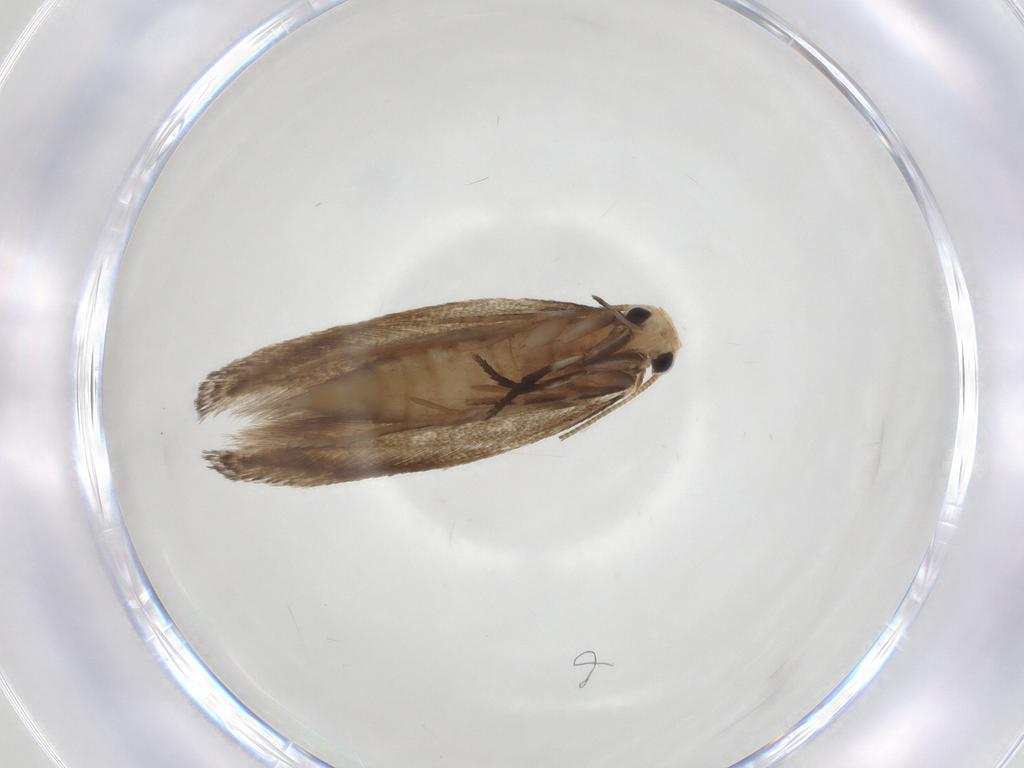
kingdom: Animalia
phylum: Arthropoda
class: Insecta
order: Lepidoptera
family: Tineidae
